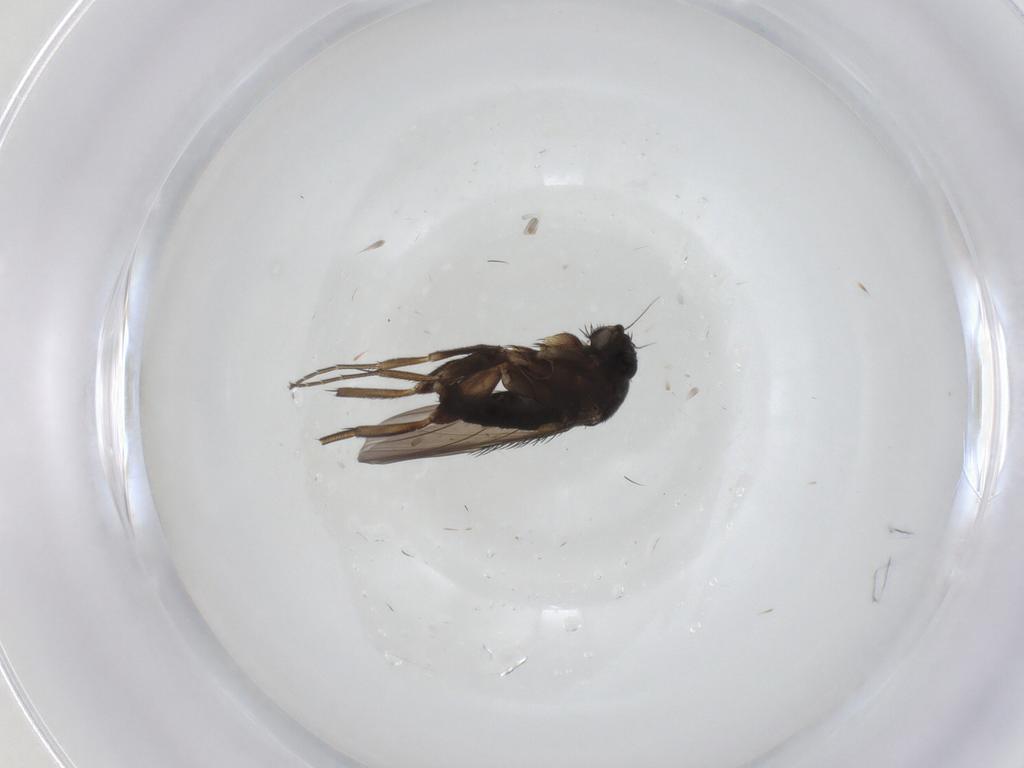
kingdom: Animalia
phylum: Arthropoda
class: Insecta
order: Diptera
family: Phoridae
